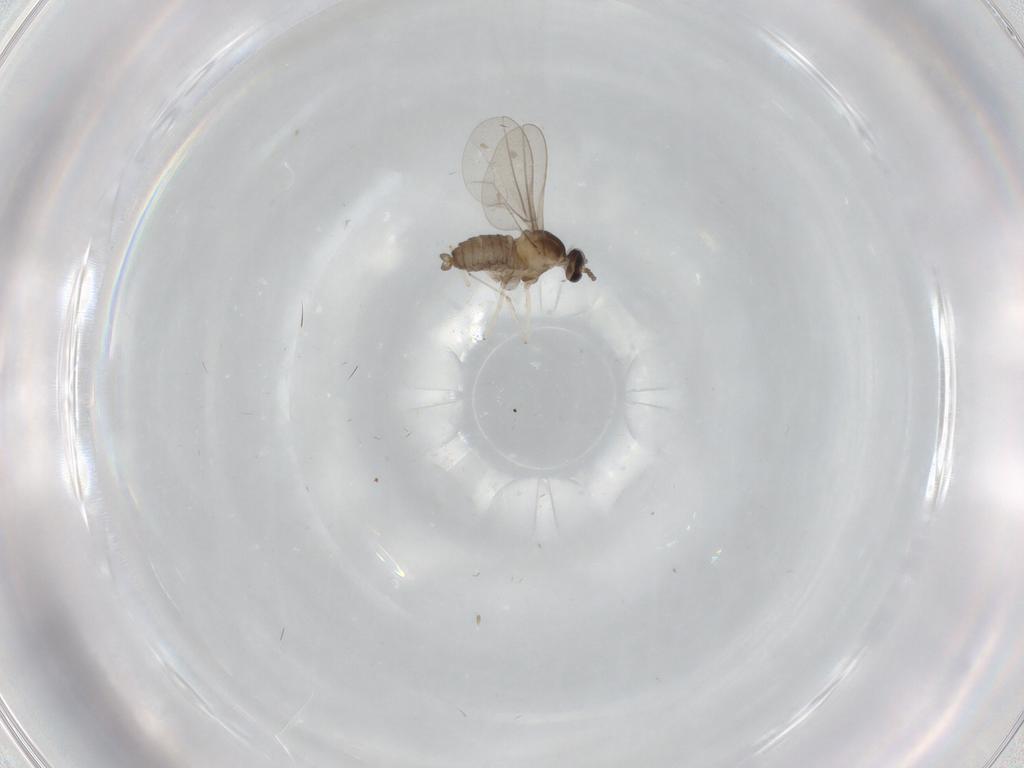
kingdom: Animalia
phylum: Arthropoda
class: Insecta
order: Diptera
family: Cecidomyiidae
